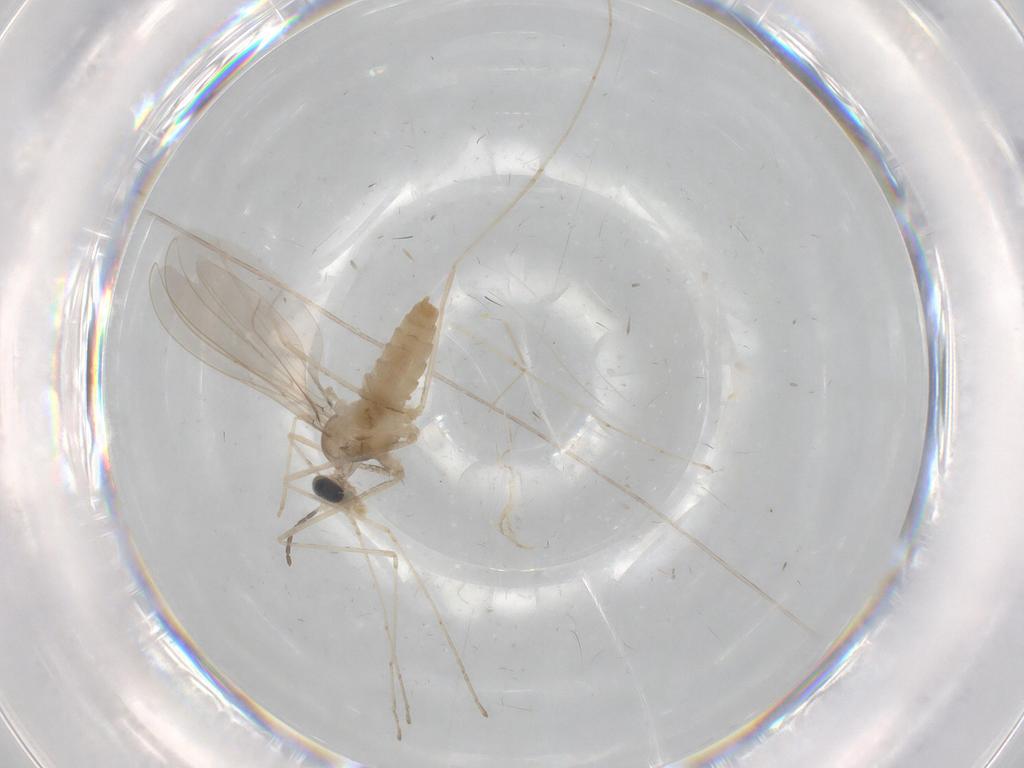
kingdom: Animalia
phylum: Arthropoda
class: Insecta
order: Diptera
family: Cecidomyiidae
